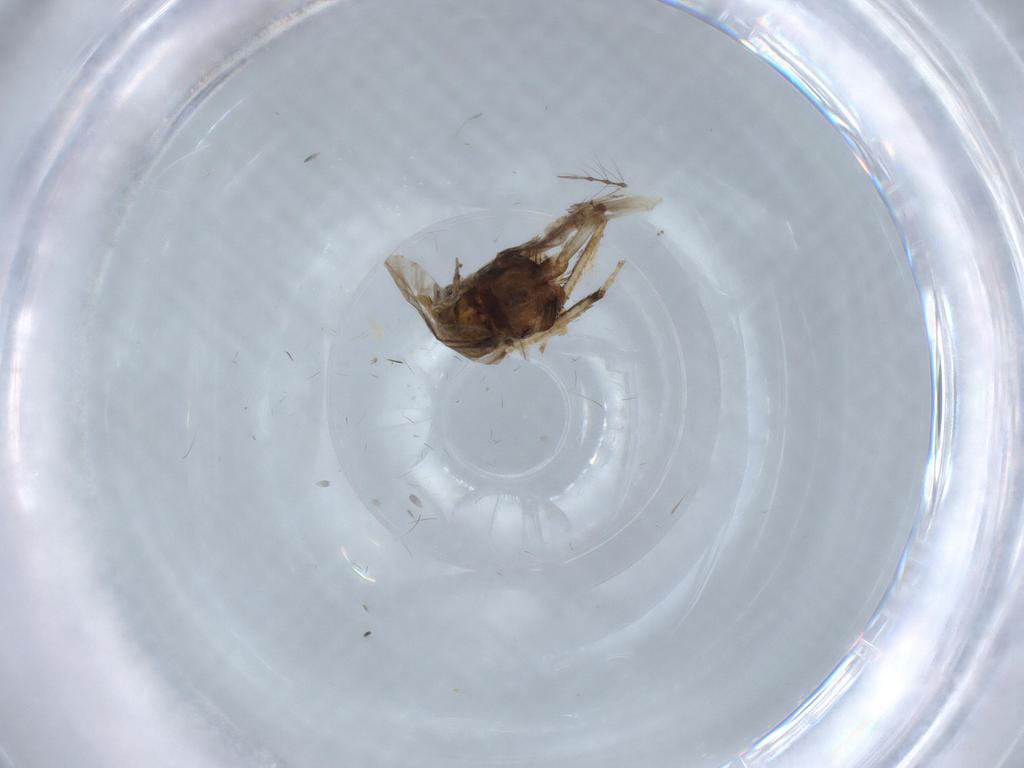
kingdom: Animalia
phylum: Arthropoda
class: Insecta
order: Hemiptera
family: Cicadellidae
